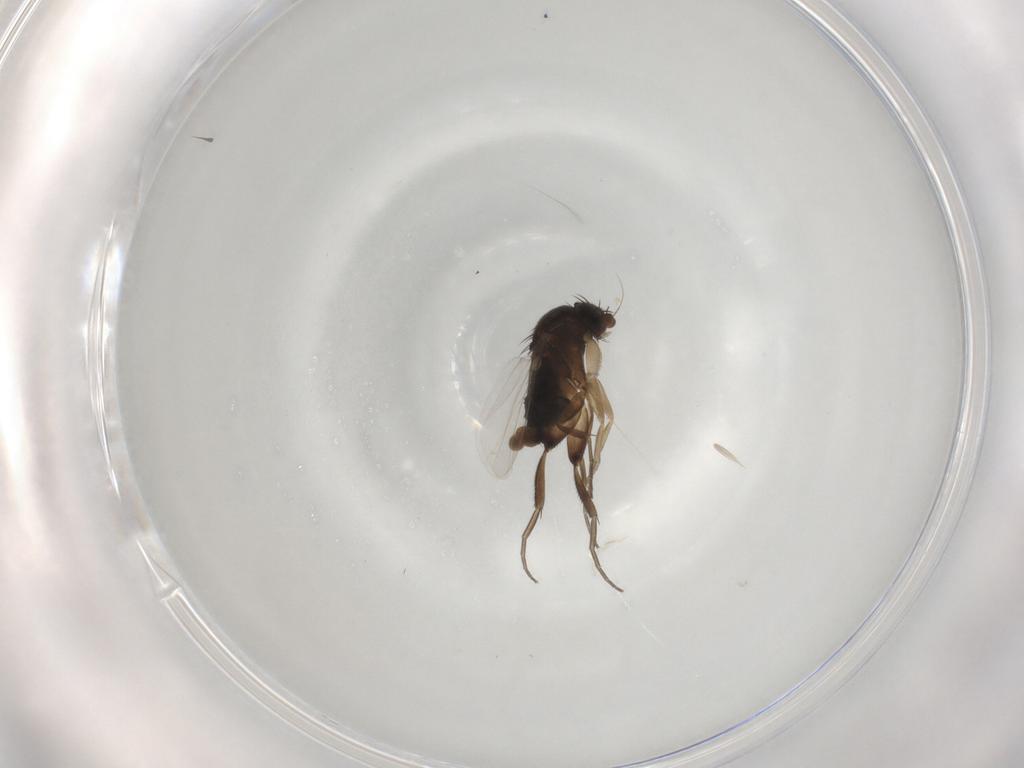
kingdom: Animalia
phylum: Arthropoda
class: Insecta
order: Diptera
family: Phoridae
